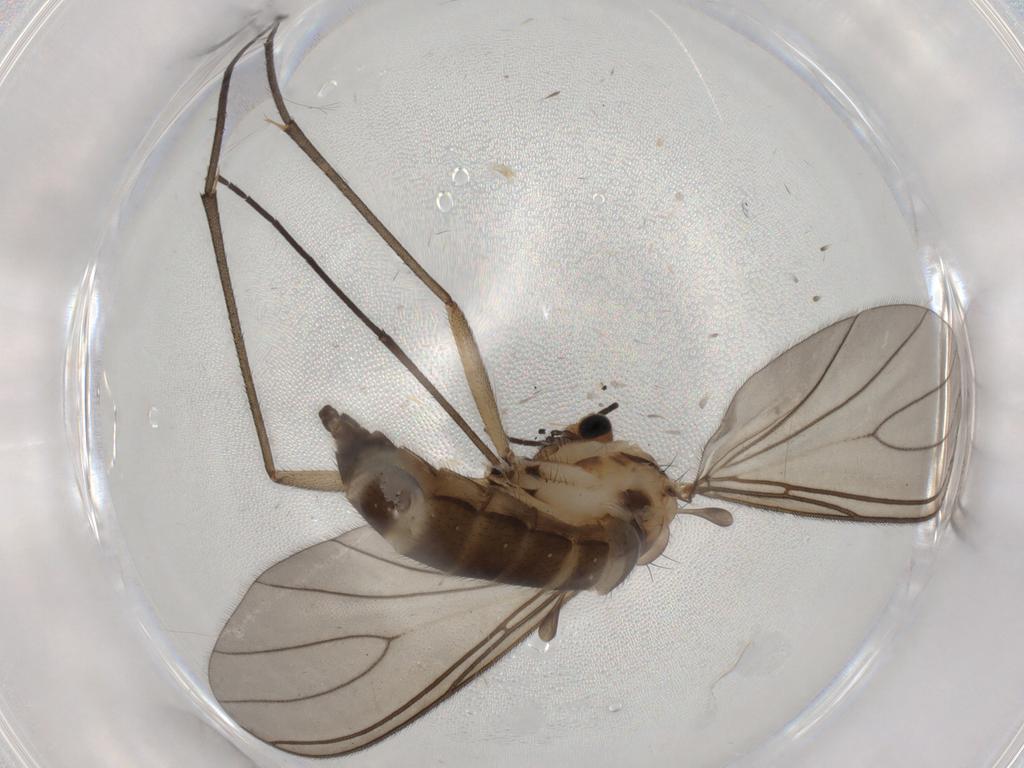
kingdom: Animalia
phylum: Arthropoda
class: Insecta
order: Diptera
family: Sciaridae
